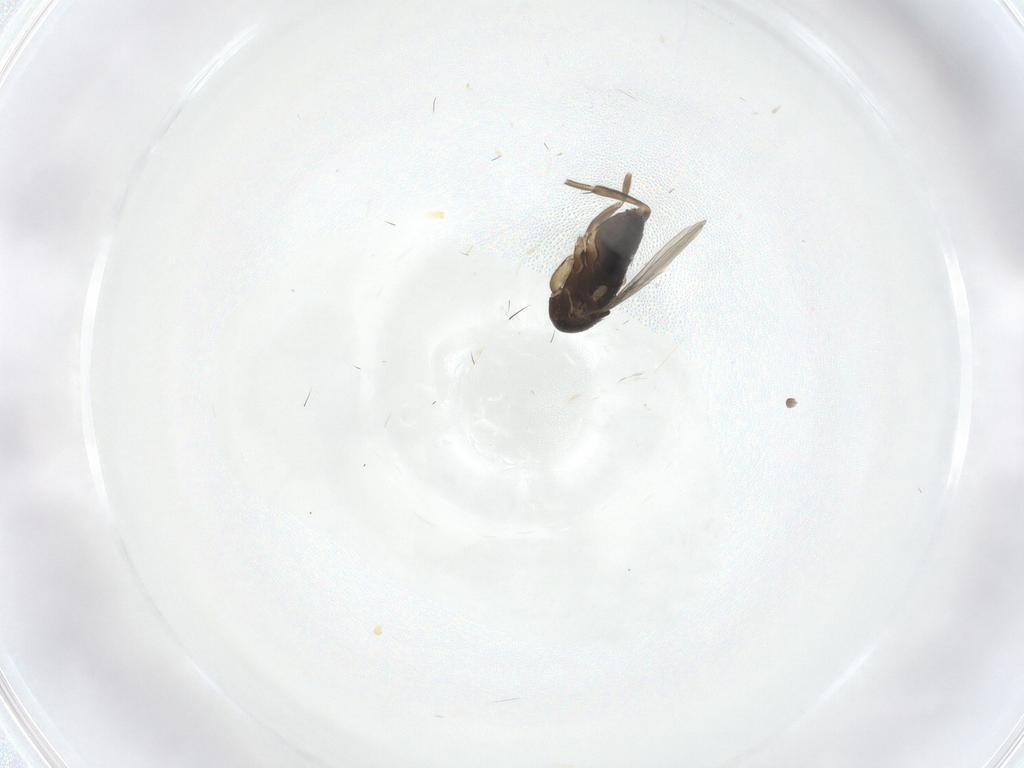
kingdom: Animalia
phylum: Arthropoda
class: Insecta
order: Diptera
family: Phoridae
